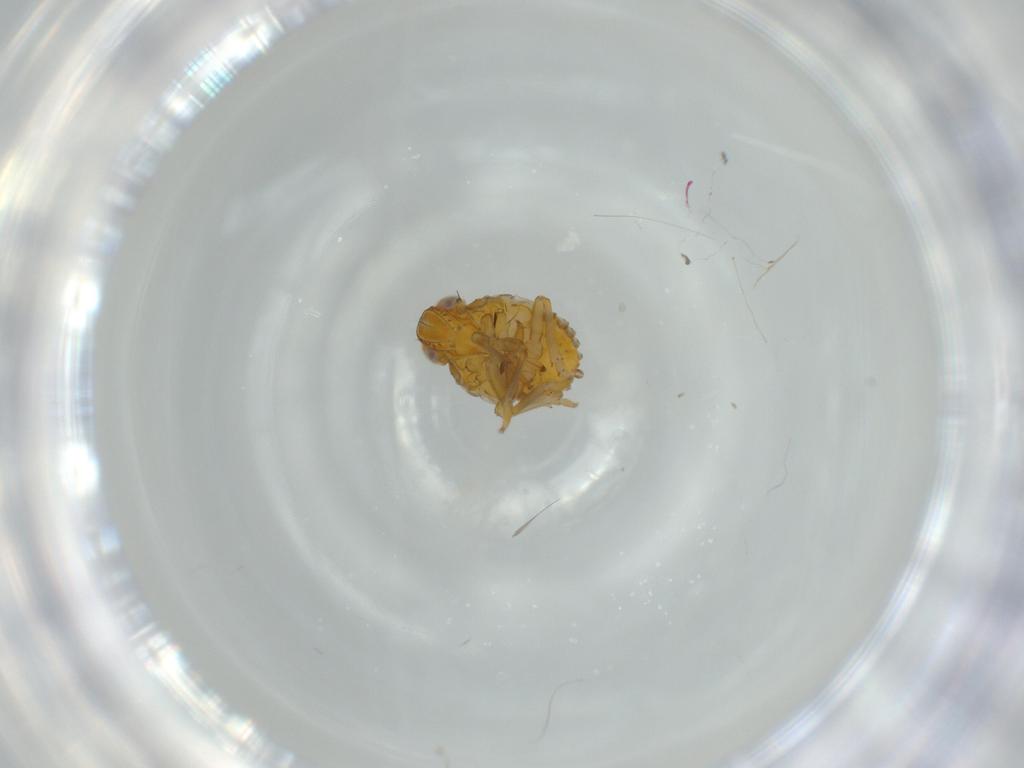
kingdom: Animalia
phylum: Arthropoda
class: Insecta
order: Hemiptera
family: Issidae
